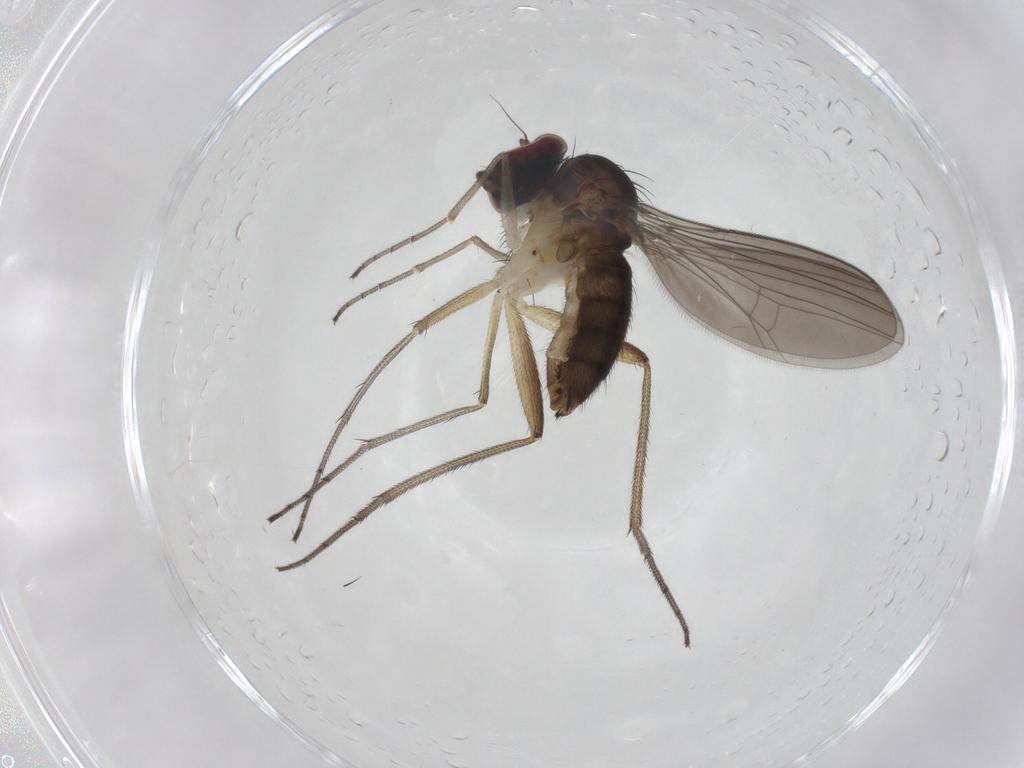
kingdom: Animalia
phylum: Arthropoda
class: Insecta
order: Diptera
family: Dolichopodidae
